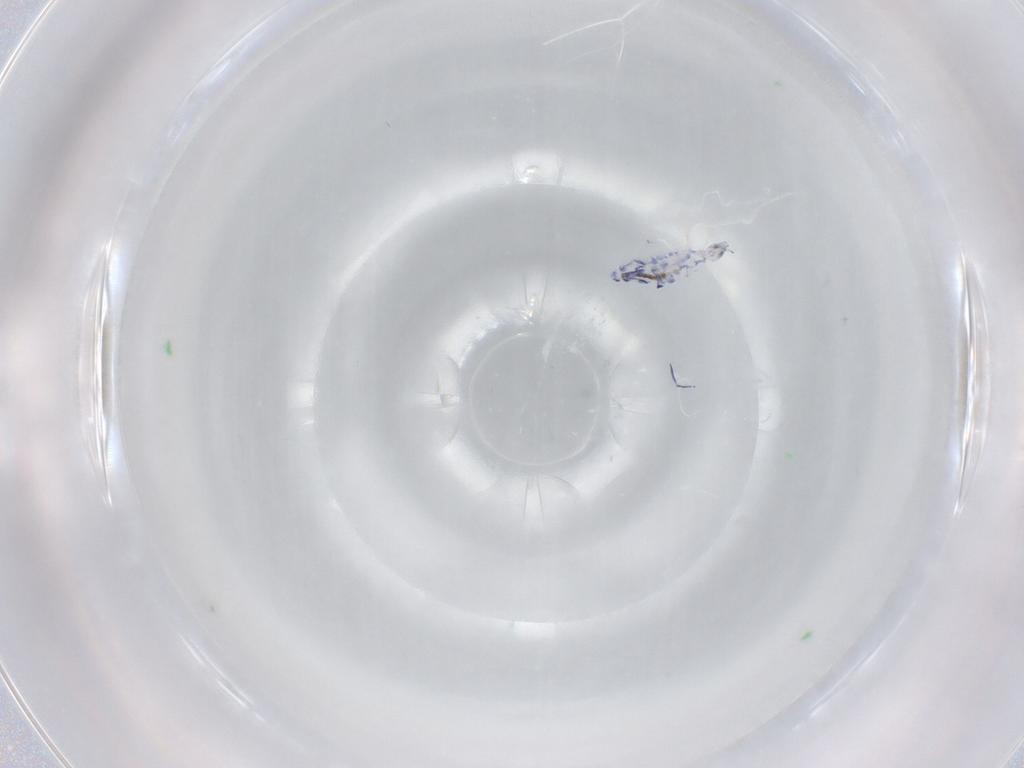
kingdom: Animalia
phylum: Arthropoda
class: Collembola
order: Entomobryomorpha
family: Entomobryidae
